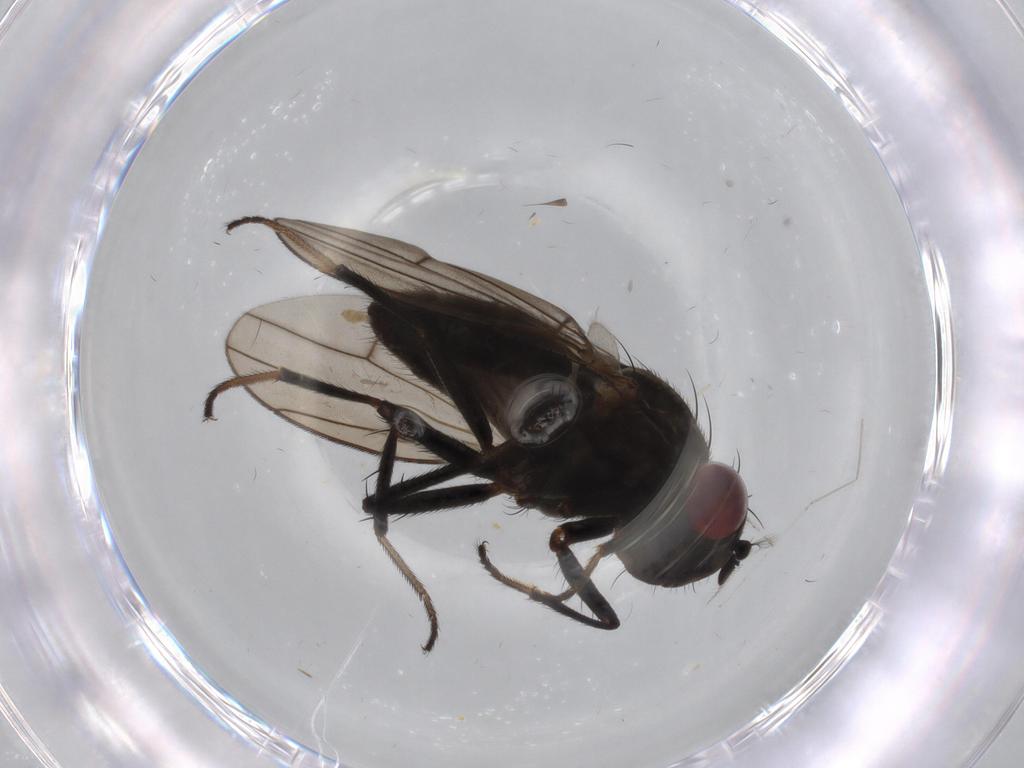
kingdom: Animalia
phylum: Arthropoda
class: Insecta
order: Diptera
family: Ephydridae
